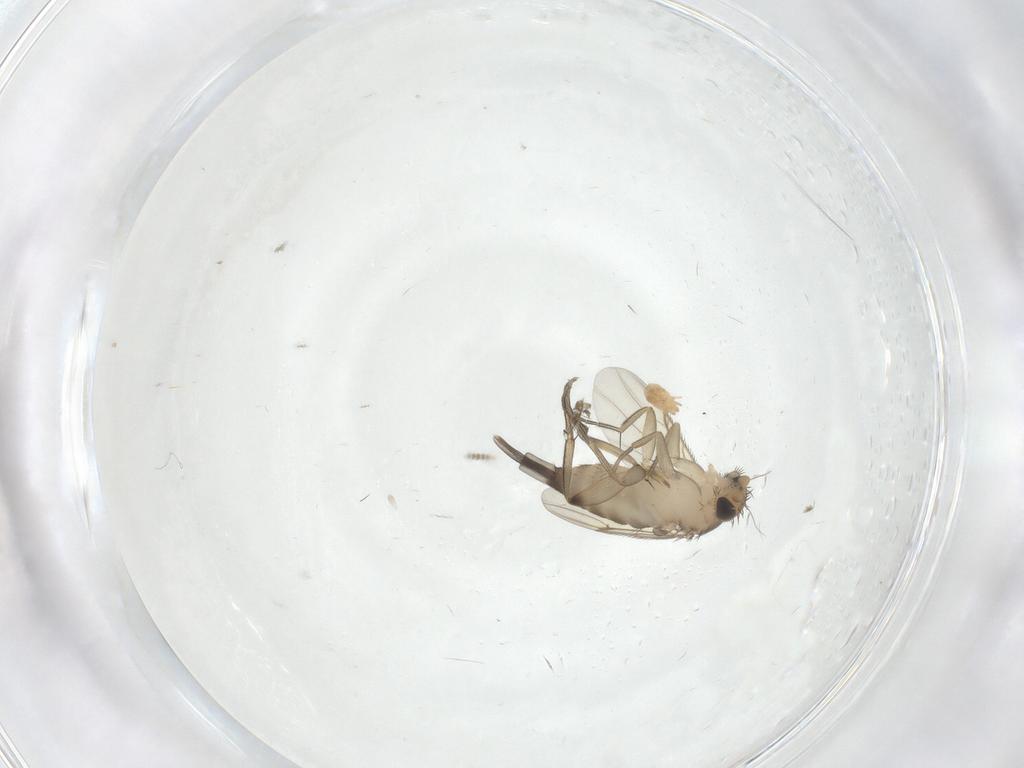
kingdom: Animalia
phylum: Arthropoda
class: Insecta
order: Diptera
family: Phoridae
